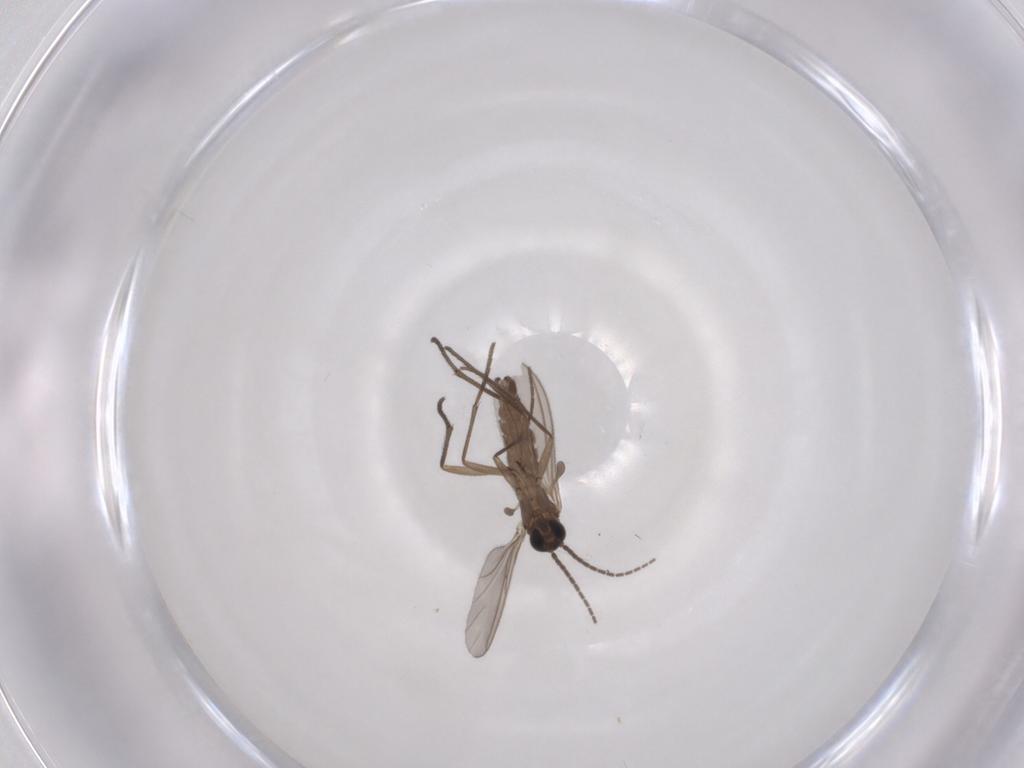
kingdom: Animalia
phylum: Arthropoda
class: Insecta
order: Diptera
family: Sciaridae
